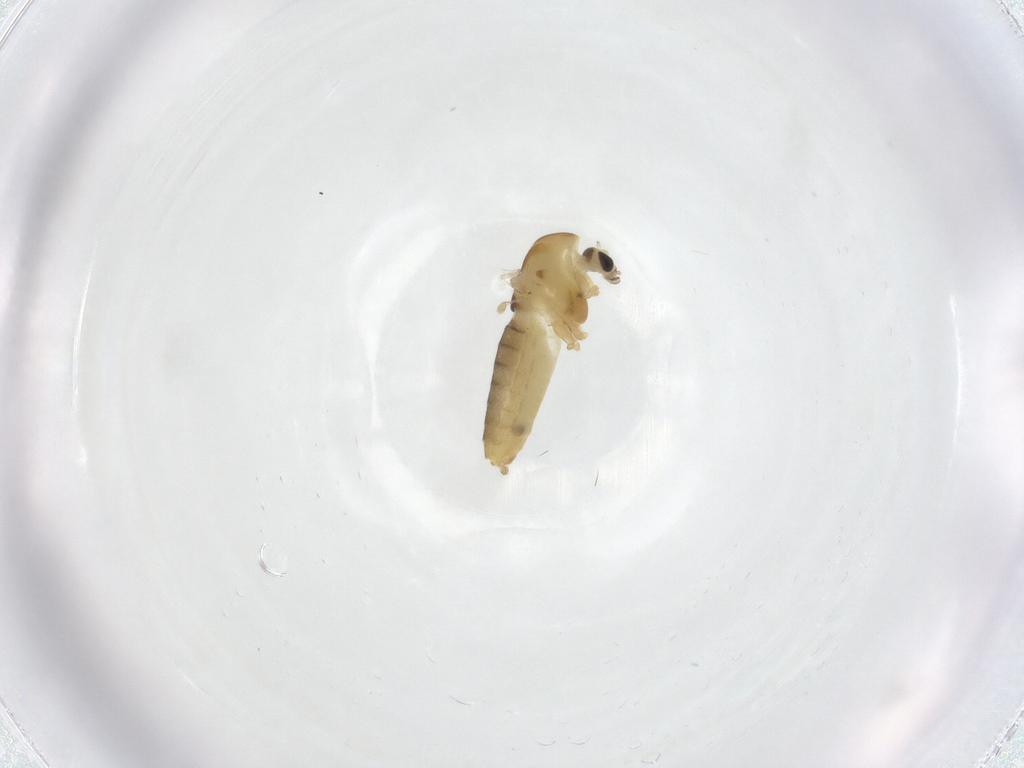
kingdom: Animalia
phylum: Arthropoda
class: Insecta
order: Diptera
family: Chironomidae
